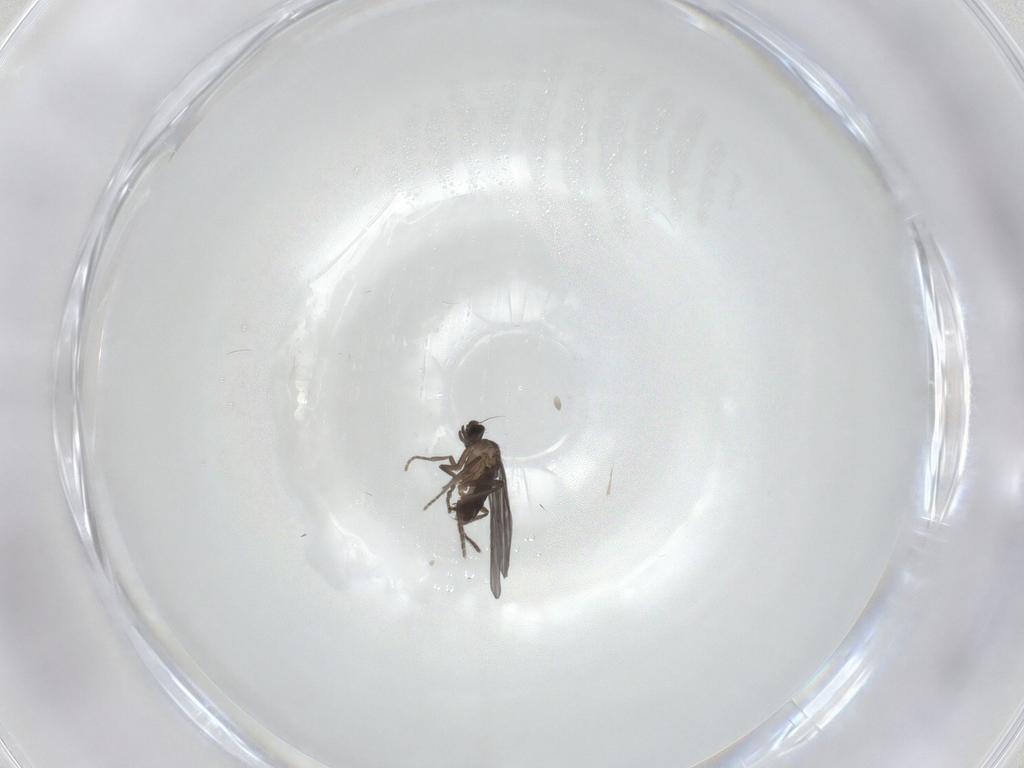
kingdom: Animalia
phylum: Arthropoda
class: Insecta
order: Diptera
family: Phoridae
